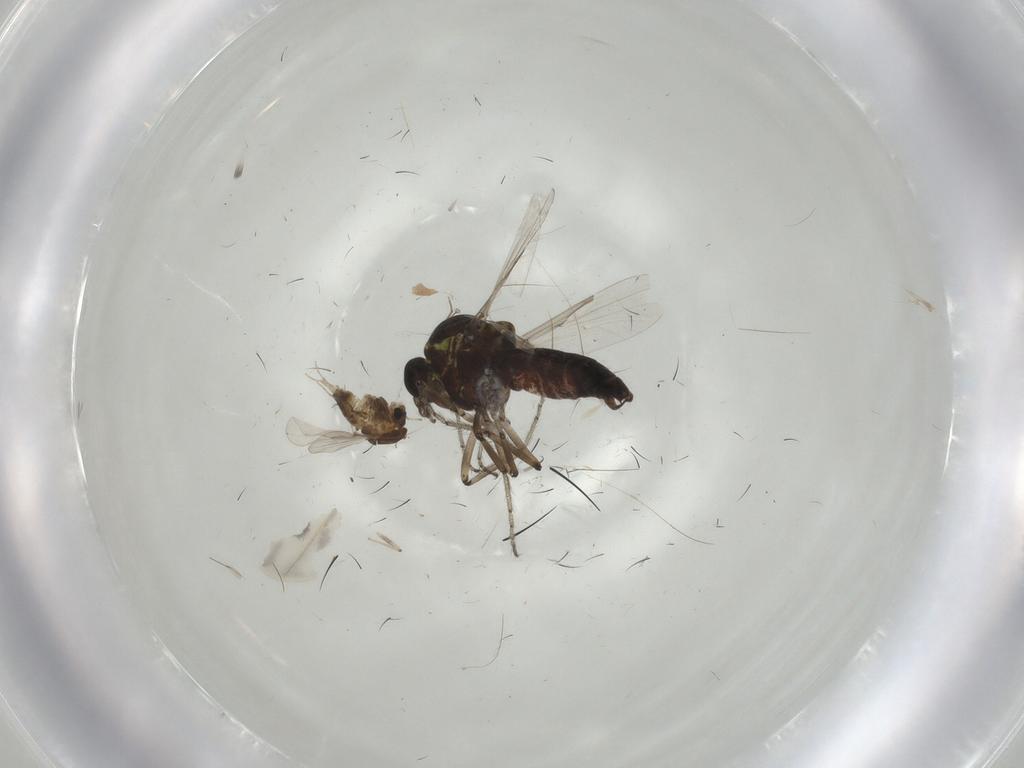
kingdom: Animalia
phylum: Arthropoda
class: Insecta
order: Diptera
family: Chironomidae
